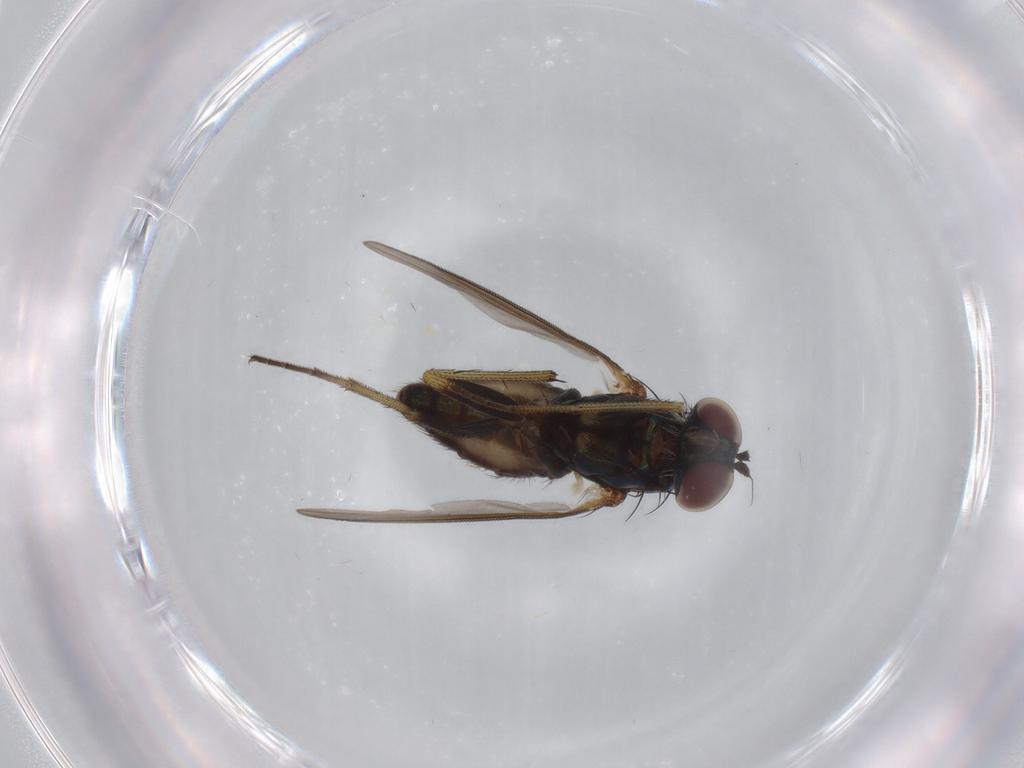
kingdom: Animalia
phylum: Arthropoda
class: Insecta
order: Diptera
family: Dolichopodidae
